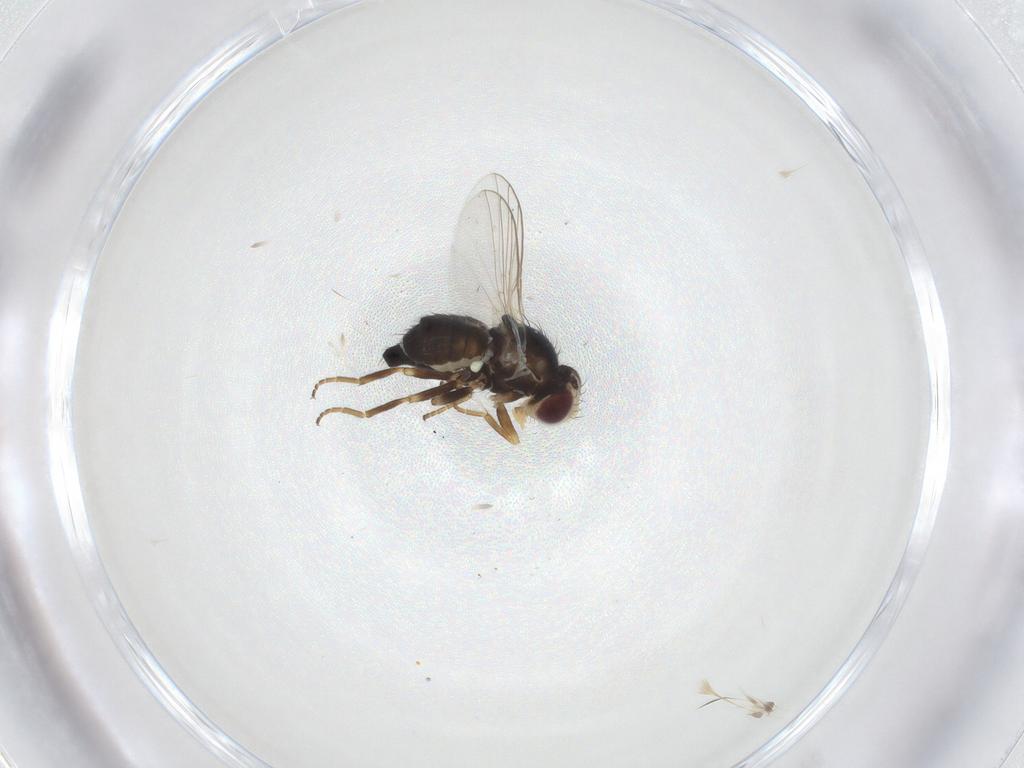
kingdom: Animalia
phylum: Arthropoda
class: Insecta
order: Diptera
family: Agromyzidae
